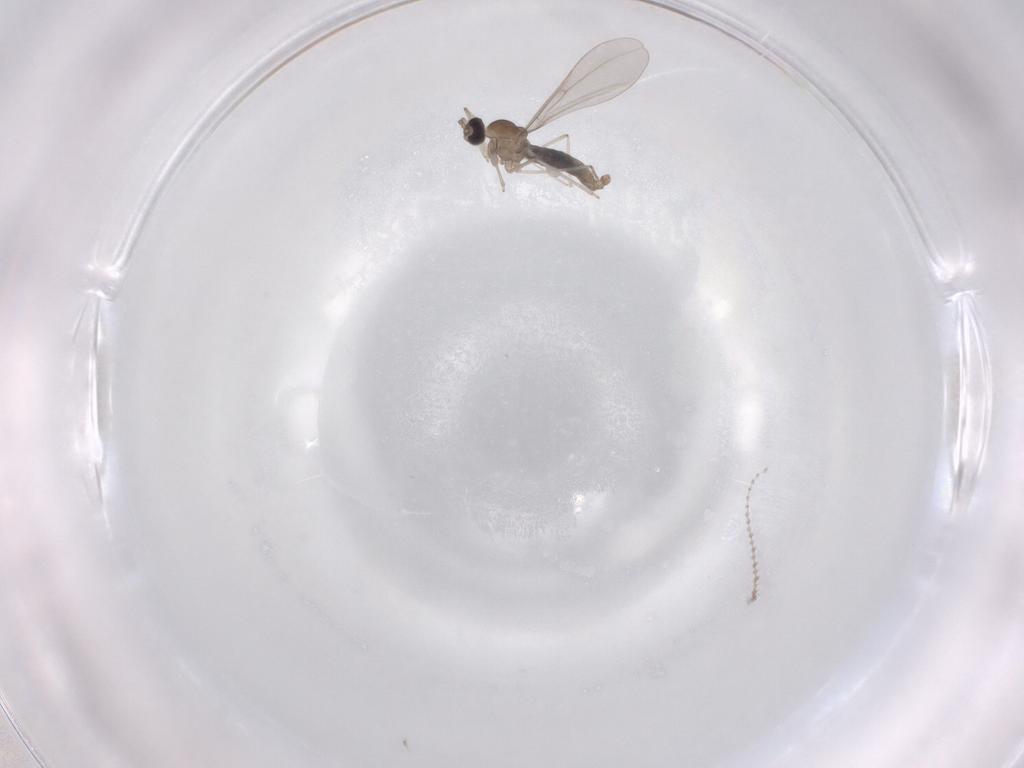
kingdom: Animalia
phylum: Arthropoda
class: Insecta
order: Diptera
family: Cecidomyiidae
